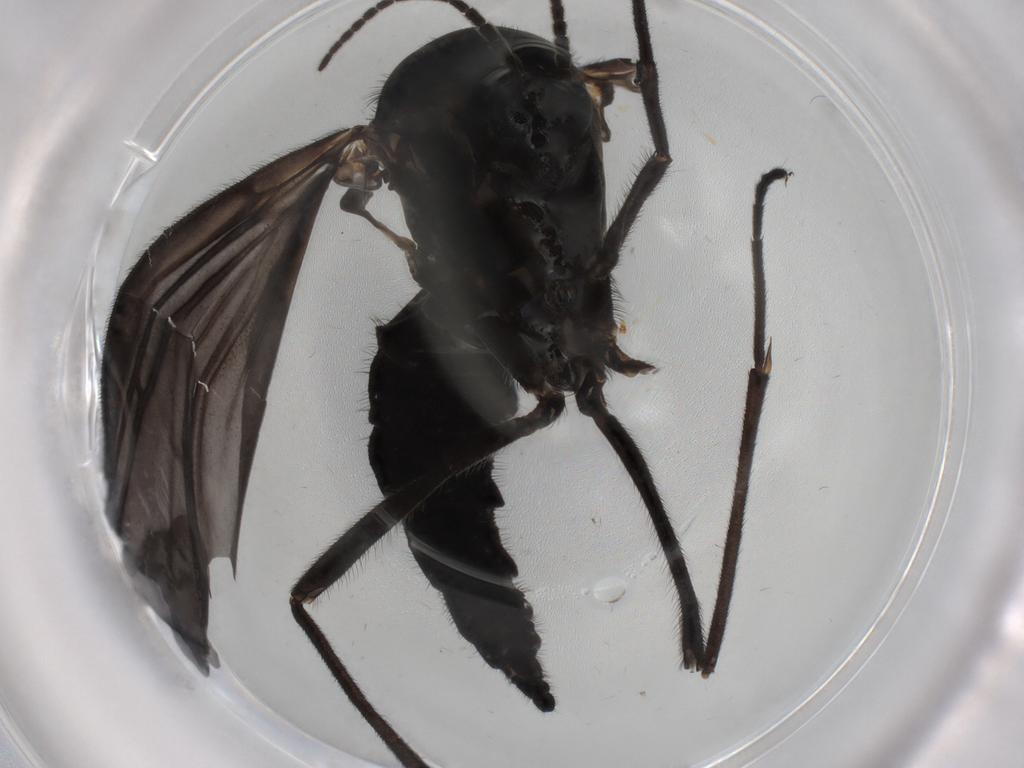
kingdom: Animalia
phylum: Arthropoda
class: Insecta
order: Diptera
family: Sciaridae
